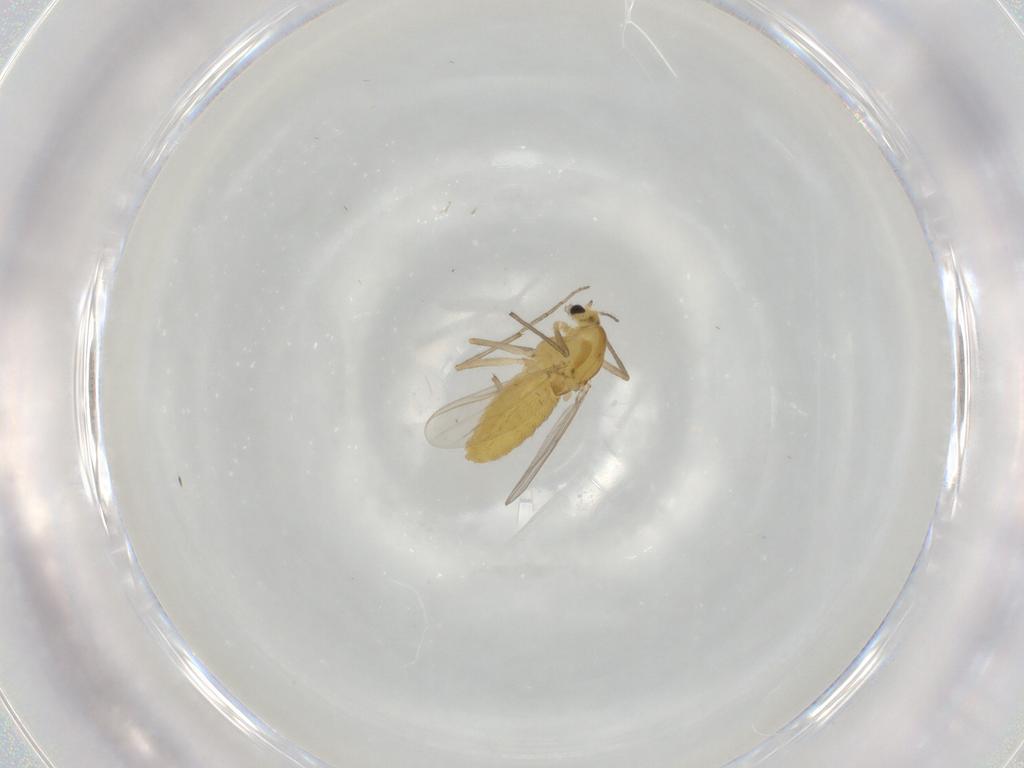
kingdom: Animalia
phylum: Arthropoda
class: Insecta
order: Diptera
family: Chironomidae
